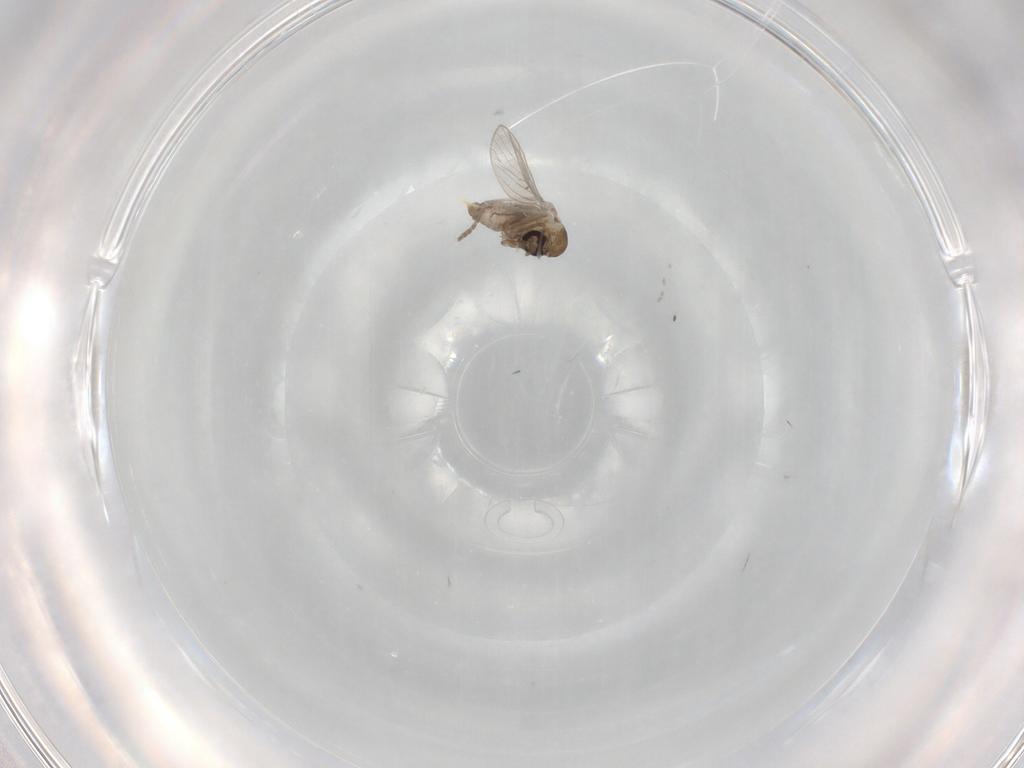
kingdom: Animalia
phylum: Arthropoda
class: Insecta
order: Diptera
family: Psychodidae
